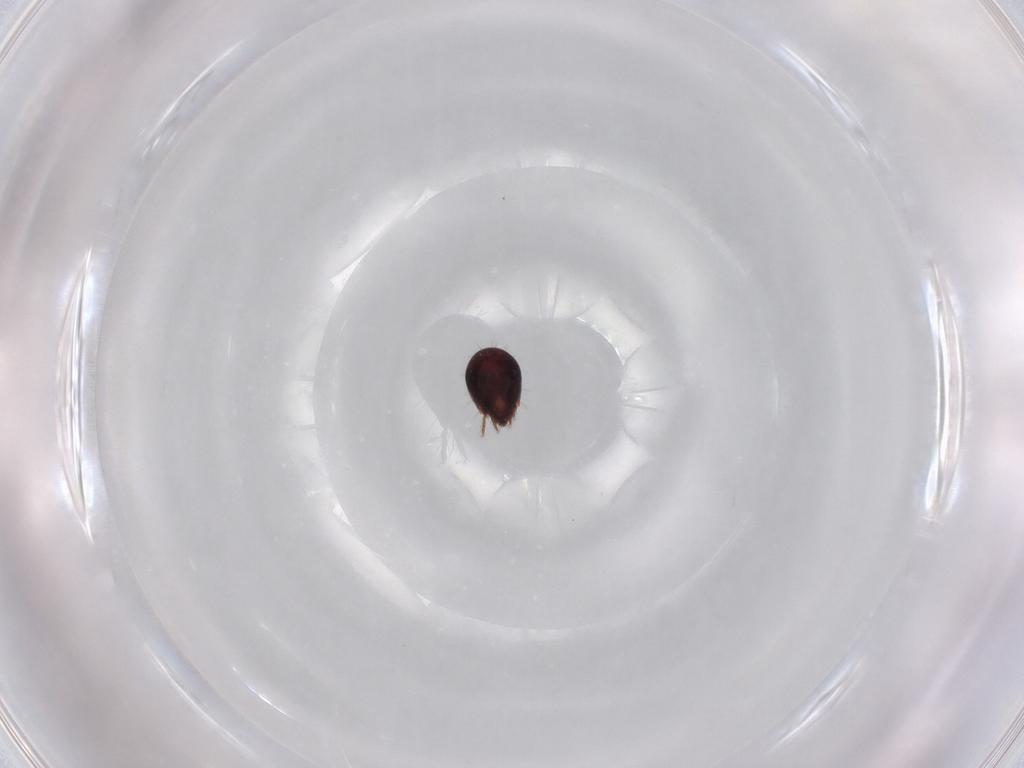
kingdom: Animalia
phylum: Arthropoda
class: Arachnida
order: Sarcoptiformes
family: Humerobatidae
